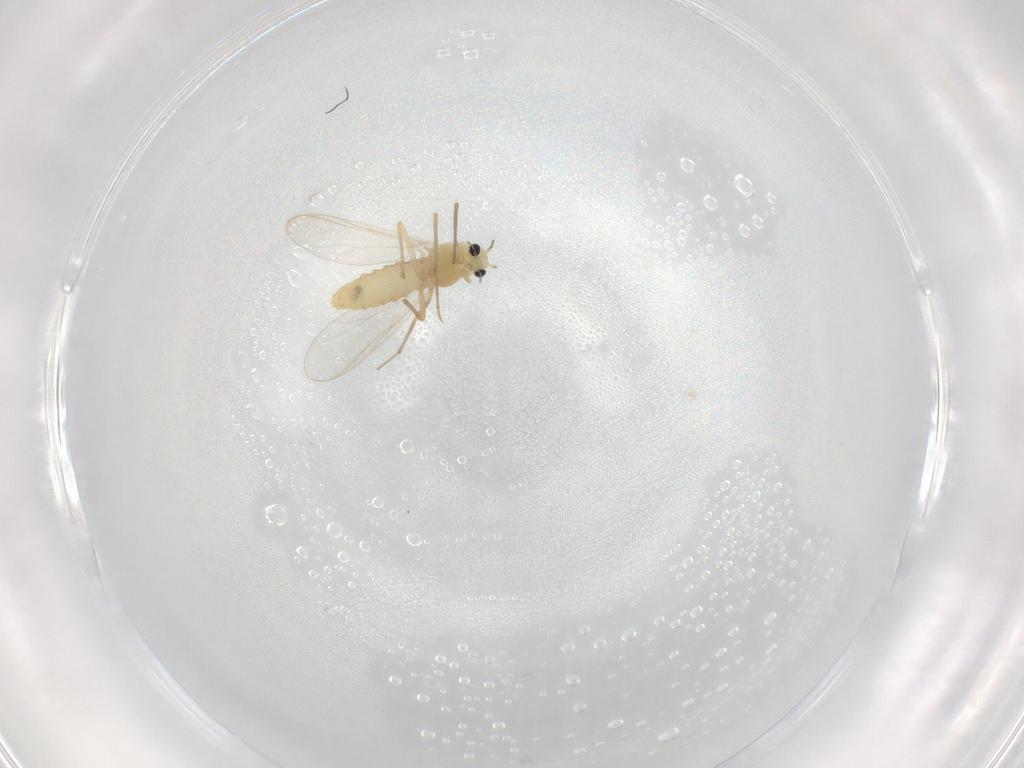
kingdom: Animalia
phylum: Arthropoda
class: Insecta
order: Diptera
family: Chironomidae
